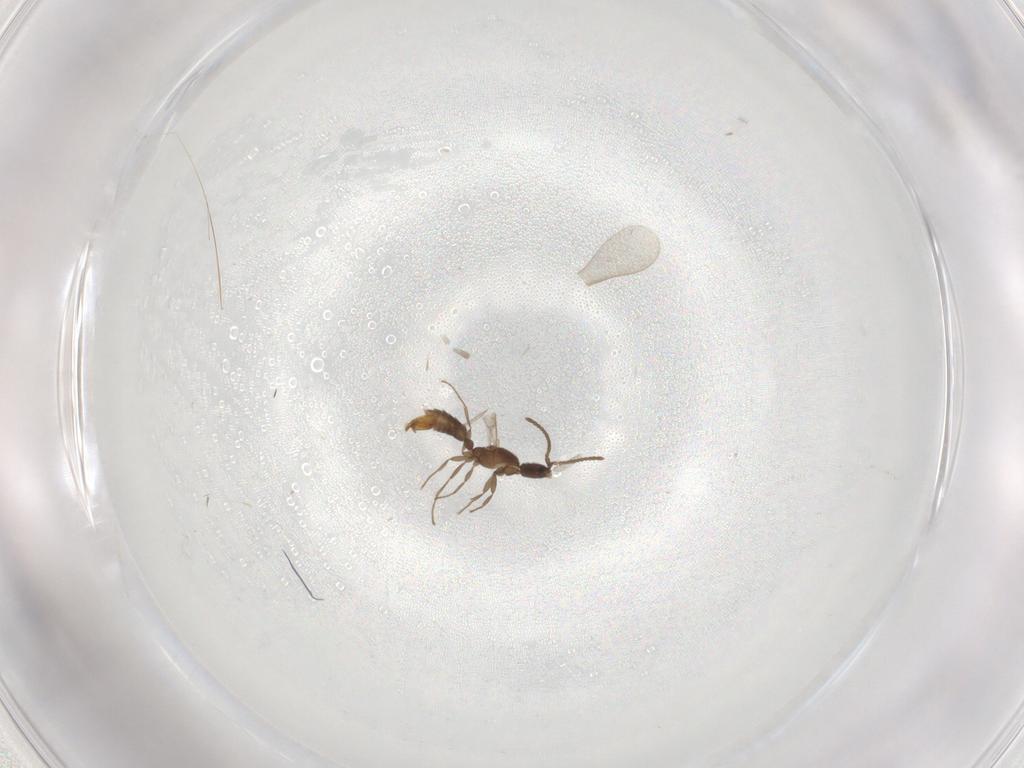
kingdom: Animalia
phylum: Arthropoda
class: Insecta
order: Hymenoptera
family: Formicidae
